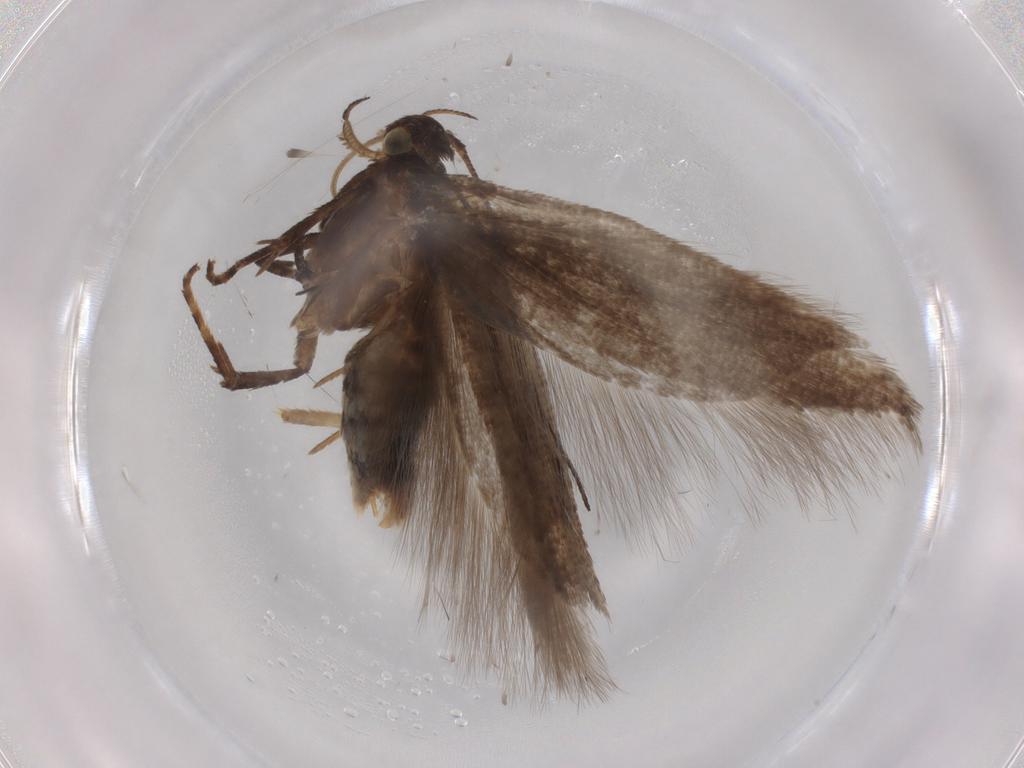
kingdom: Animalia
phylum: Arthropoda
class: Insecta
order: Lepidoptera
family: Gelechiidae
